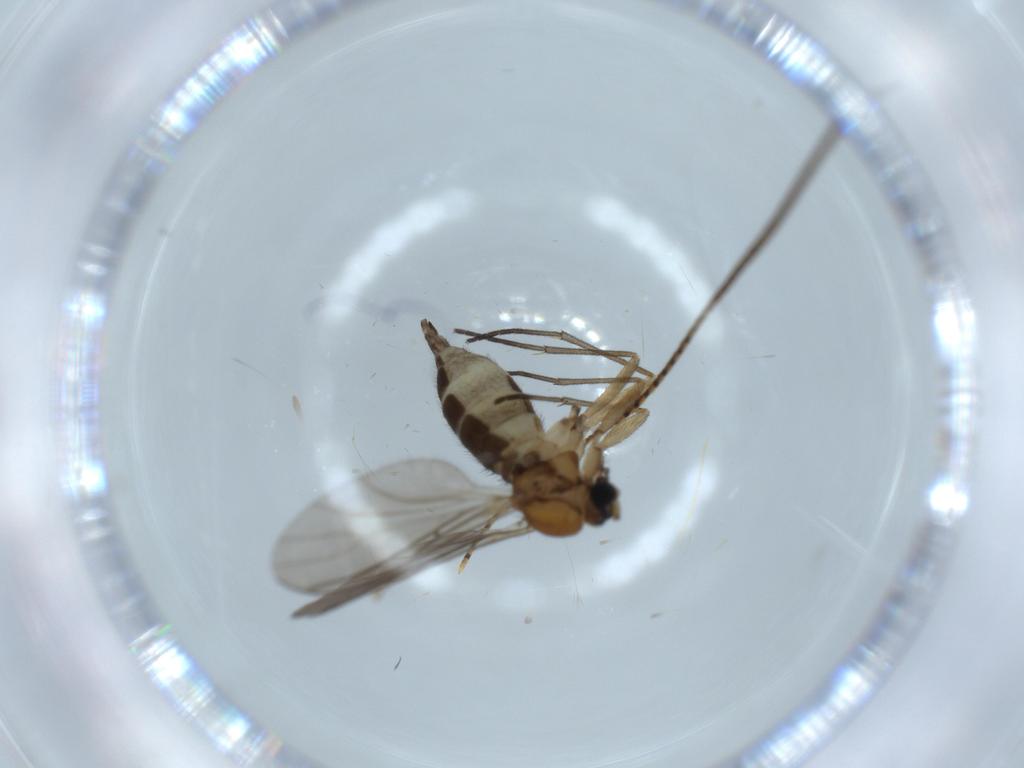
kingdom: Animalia
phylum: Arthropoda
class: Insecta
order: Diptera
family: Sciaridae
